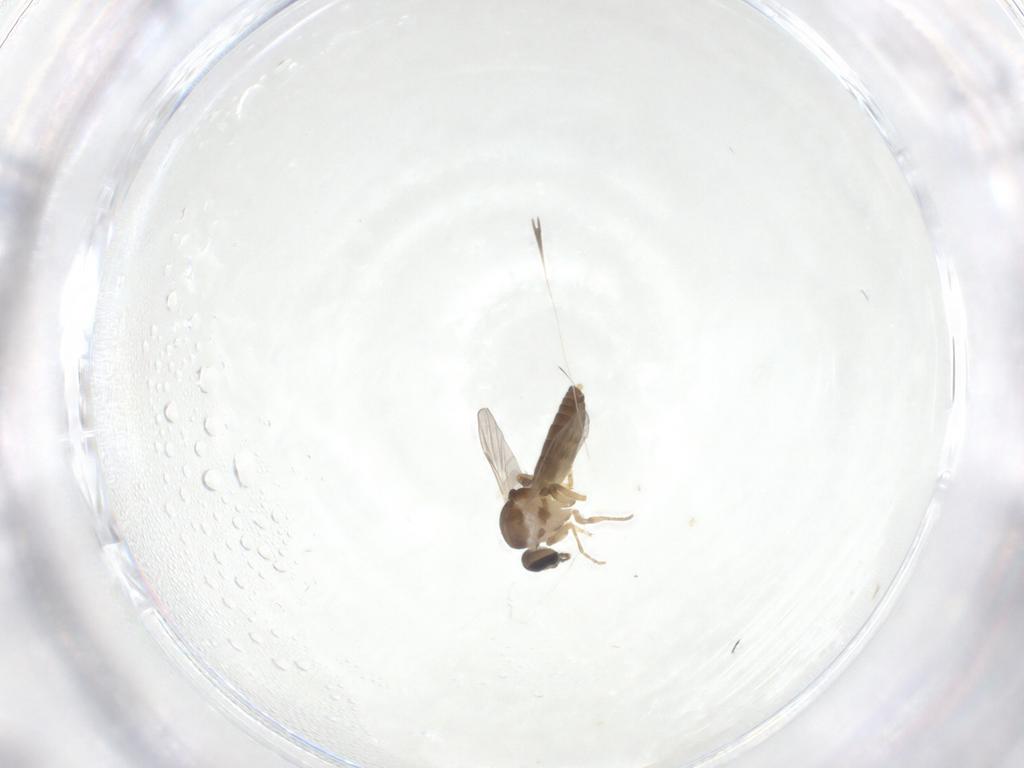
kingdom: Animalia
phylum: Arthropoda
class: Insecta
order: Diptera
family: Ceratopogonidae
